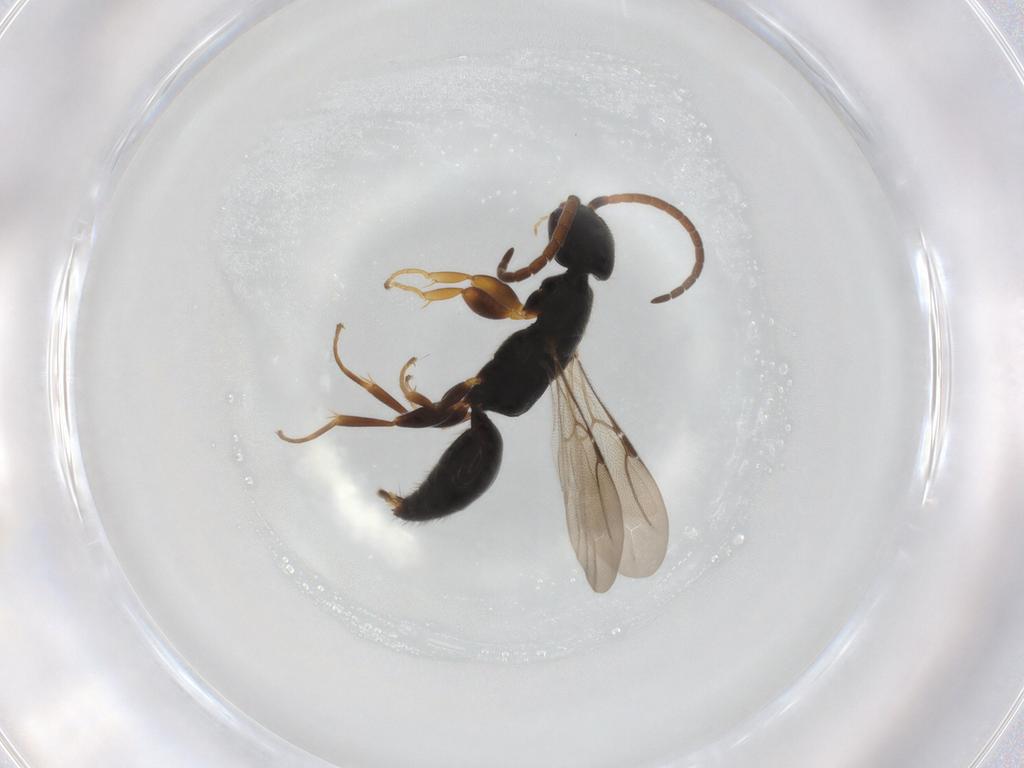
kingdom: Animalia
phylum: Arthropoda
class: Insecta
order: Hymenoptera
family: Bethylidae
